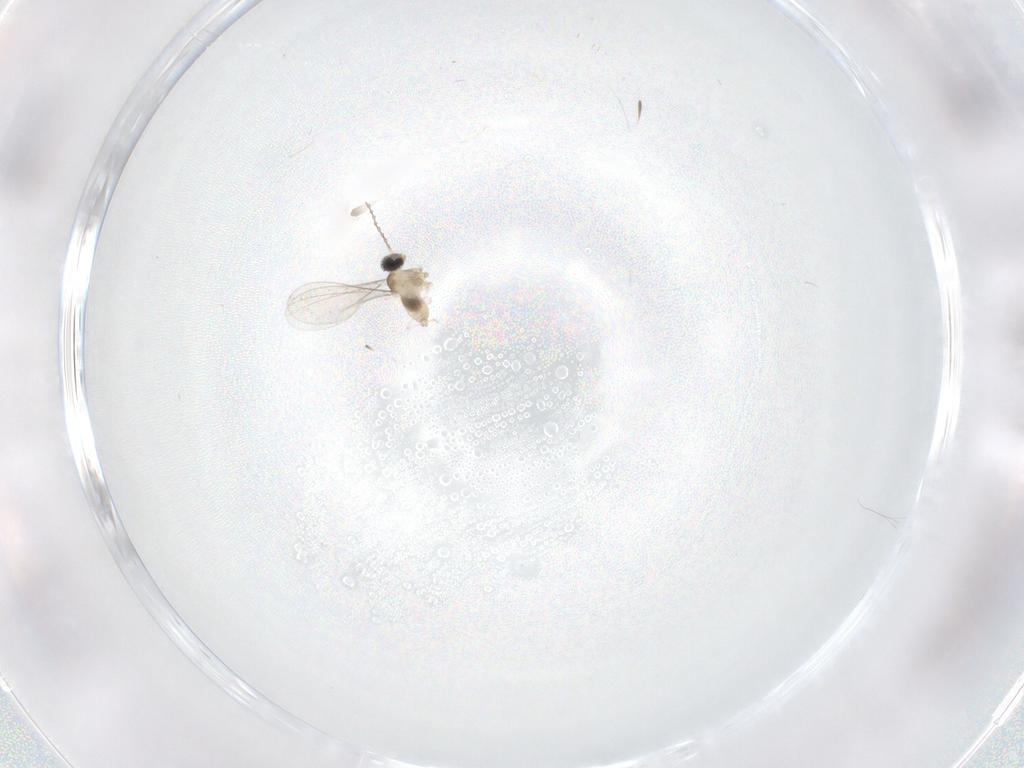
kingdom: Animalia
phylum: Arthropoda
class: Insecta
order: Diptera
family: Cecidomyiidae
